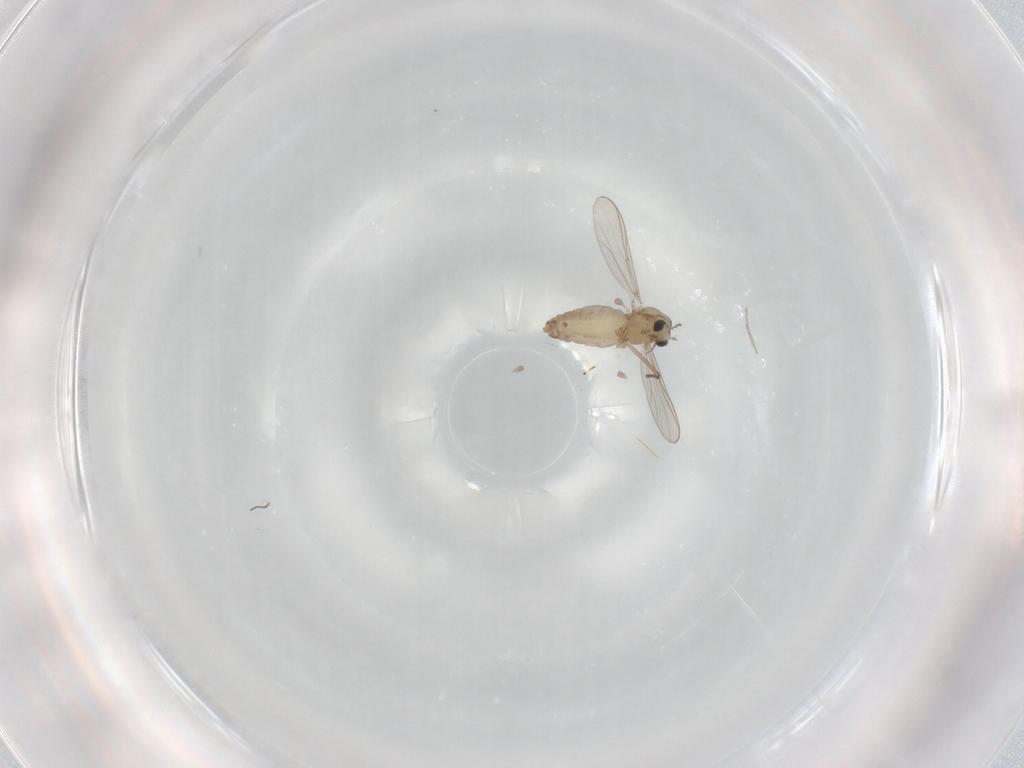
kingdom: Animalia
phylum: Arthropoda
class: Insecta
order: Diptera
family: Chironomidae
